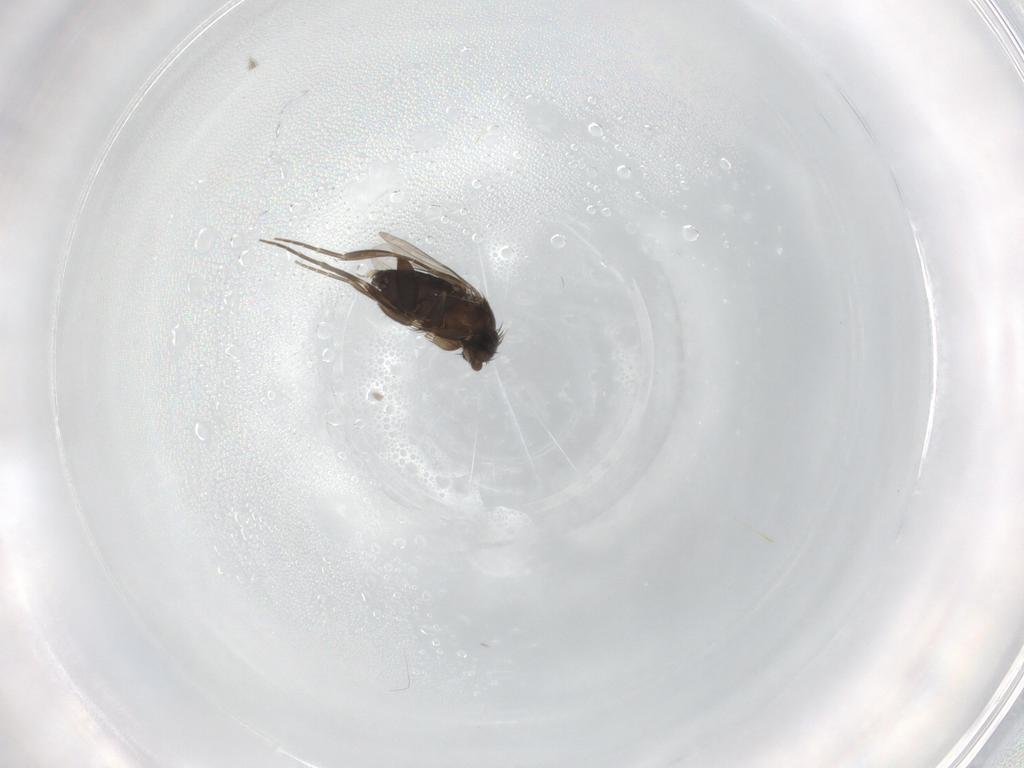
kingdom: Animalia
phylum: Arthropoda
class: Insecta
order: Diptera
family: Phoridae
